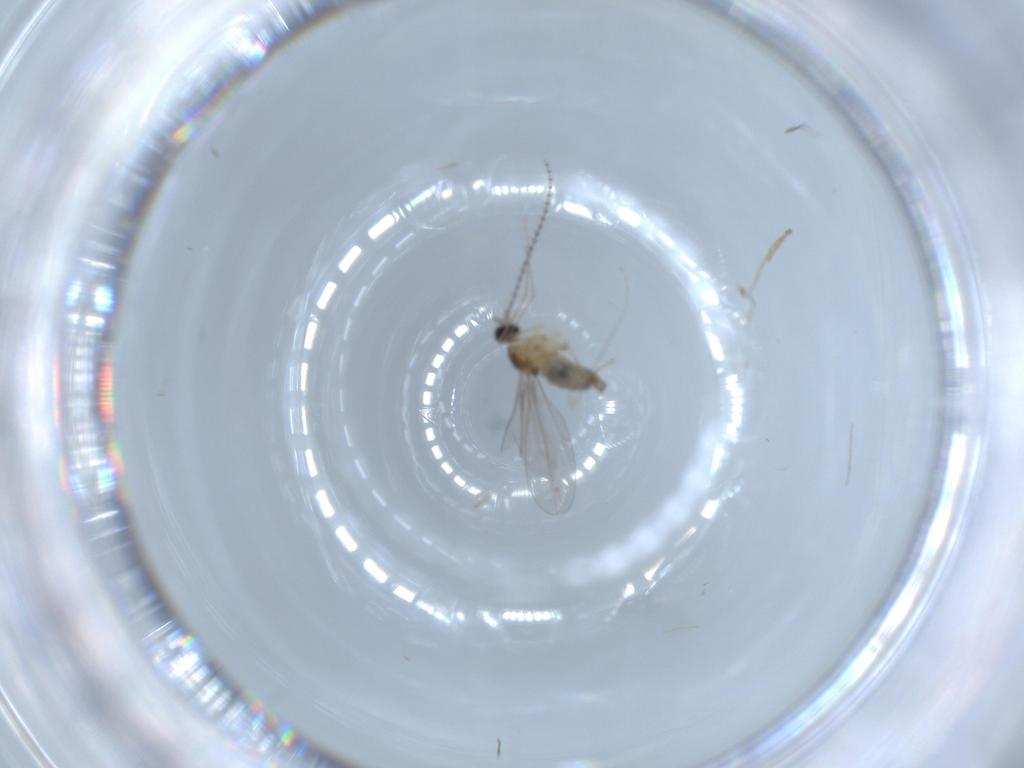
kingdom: Animalia
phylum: Arthropoda
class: Insecta
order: Diptera
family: Cecidomyiidae
